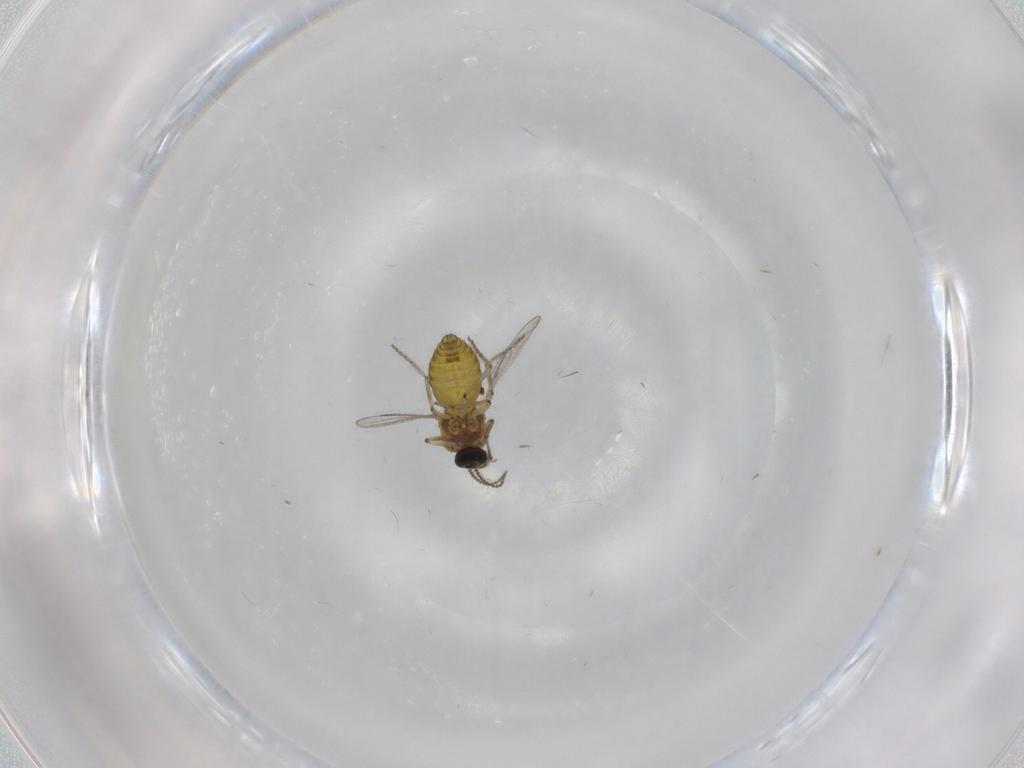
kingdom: Animalia
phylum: Arthropoda
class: Insecta
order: Diptera
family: Ceratopogonidae
